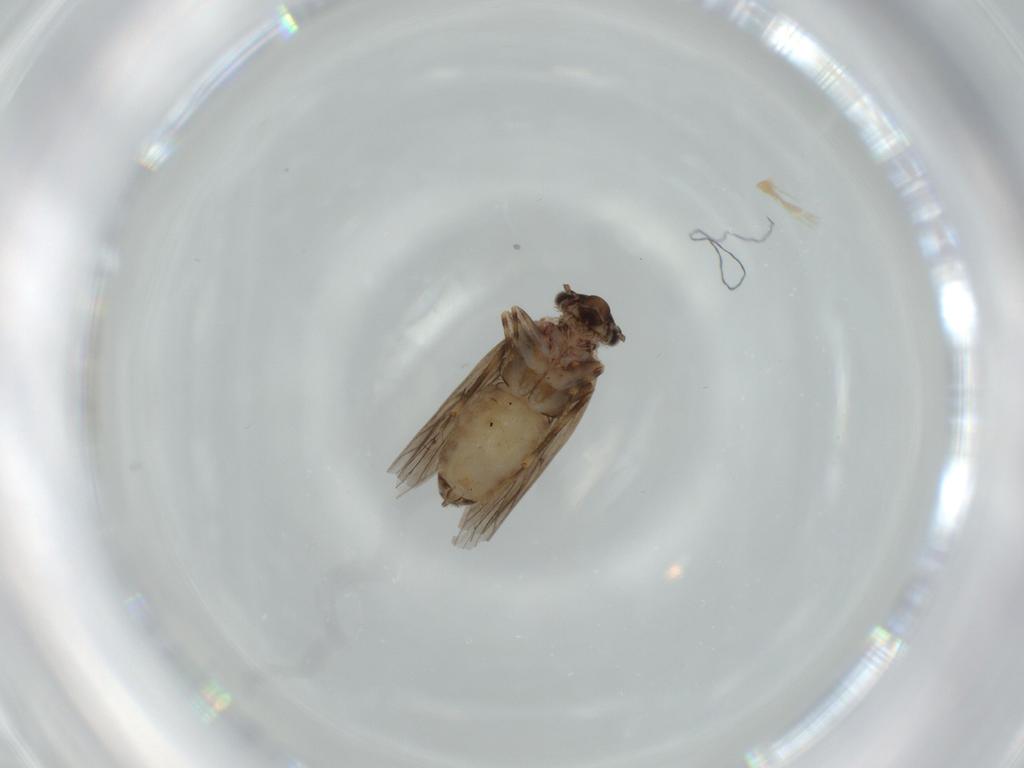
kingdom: Animalia
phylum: Arthropoda
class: Insecta
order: Psocodea
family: Lepidopsocidae
